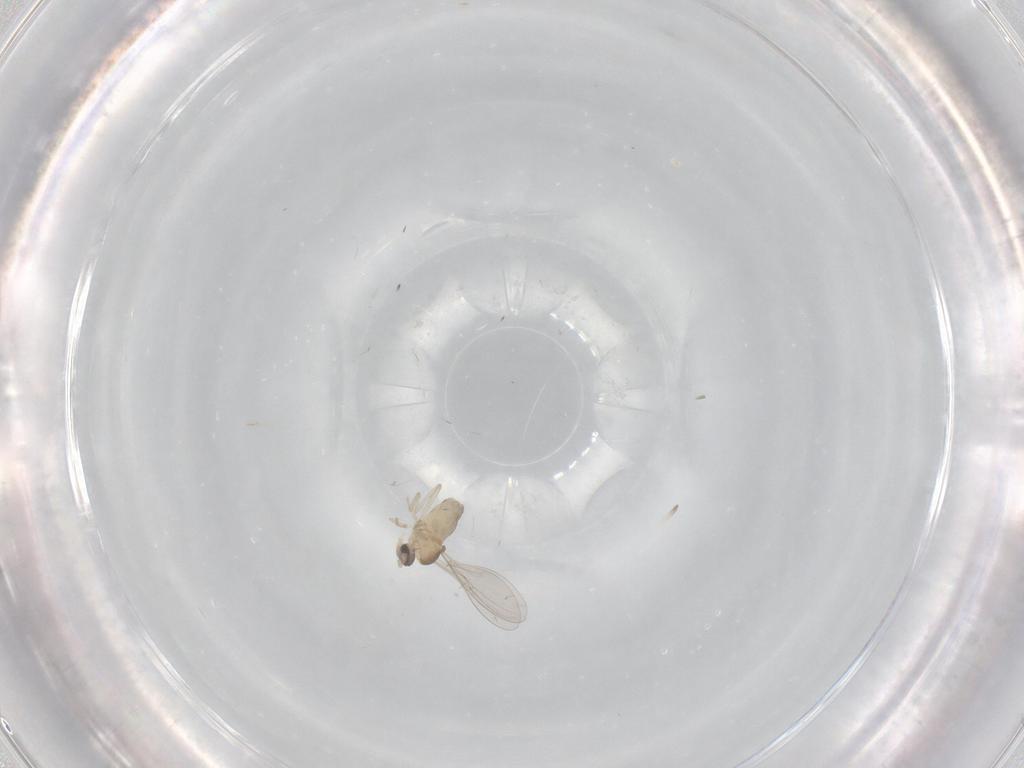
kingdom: Animalia
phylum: Arthropoda
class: Insecta
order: Diptera
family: Cecidomyiidae
